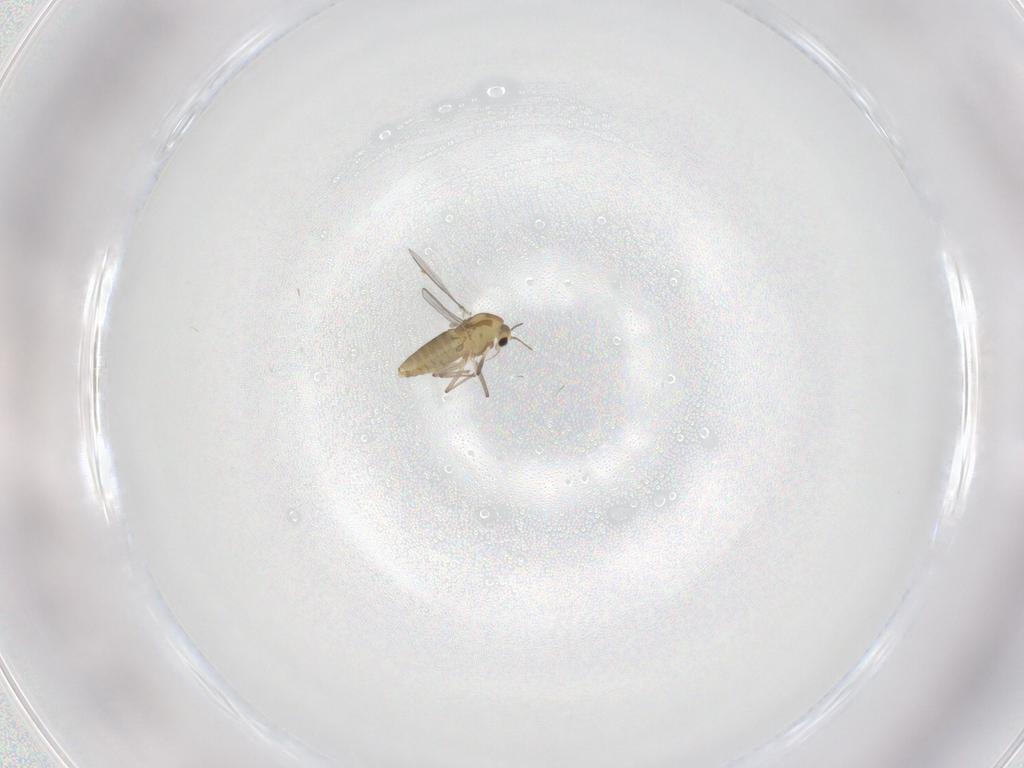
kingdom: Animalia
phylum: Arthropoda
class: Insecta
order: Diptera
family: Chironomidae
